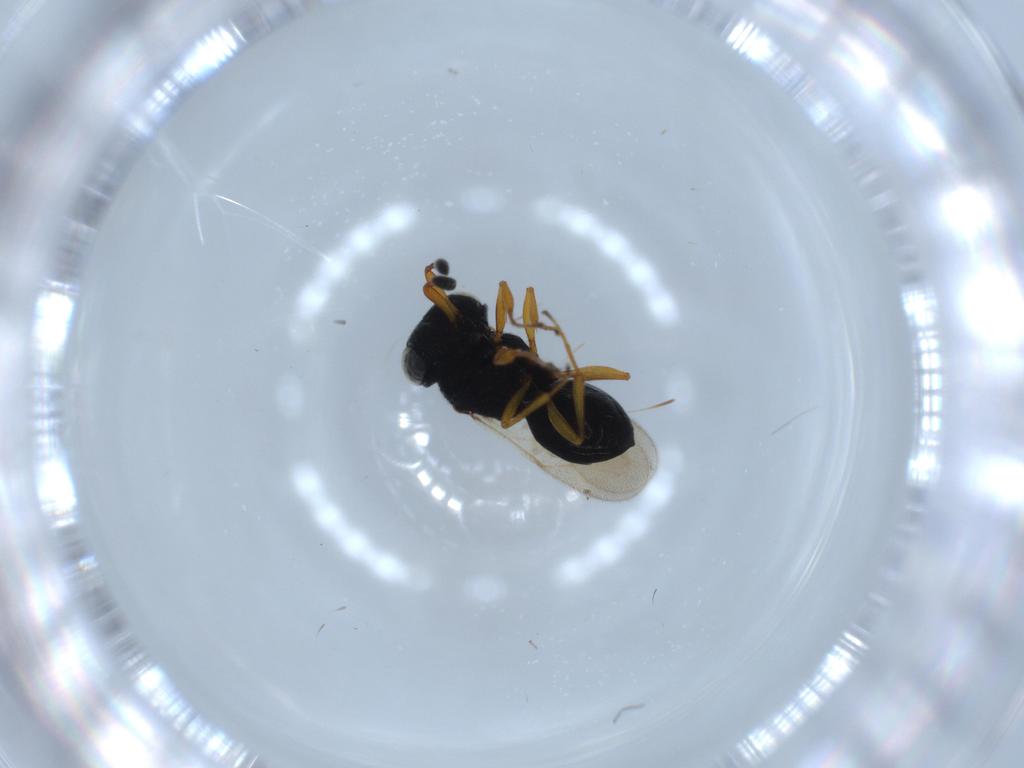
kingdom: Animalia
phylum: Arthropoda
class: Insecta
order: Hymenoptera
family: Scelionidae
